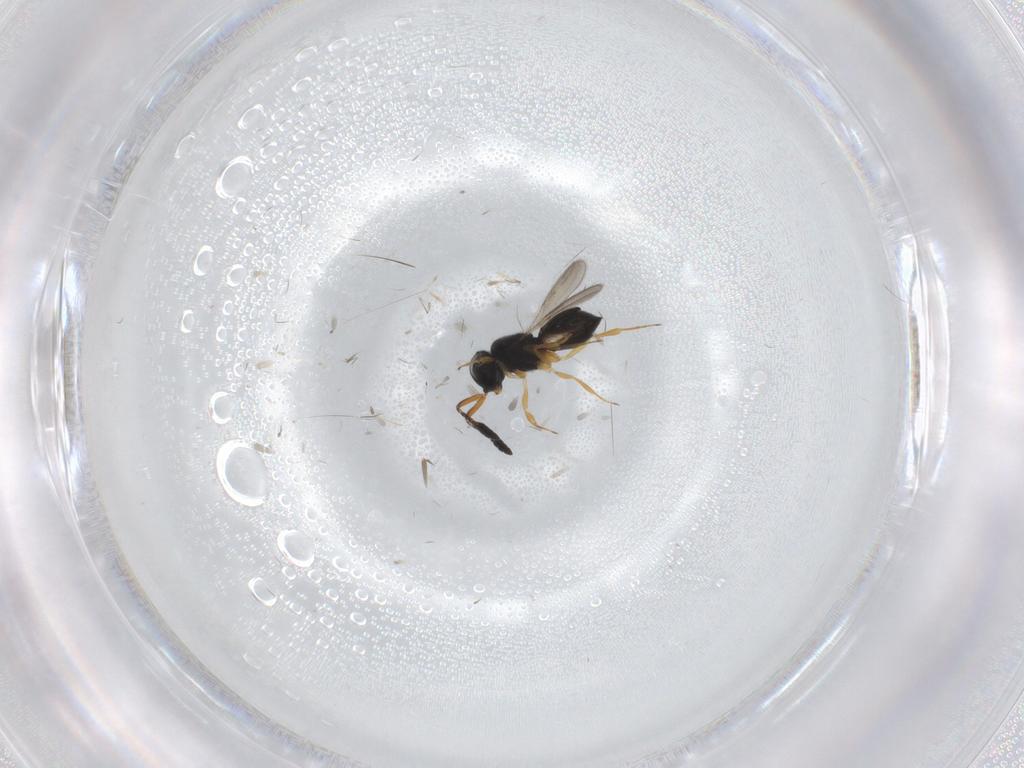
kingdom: Animalia
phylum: Arthropoda
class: Insecta
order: Hymenoptera
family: Scelionidae
